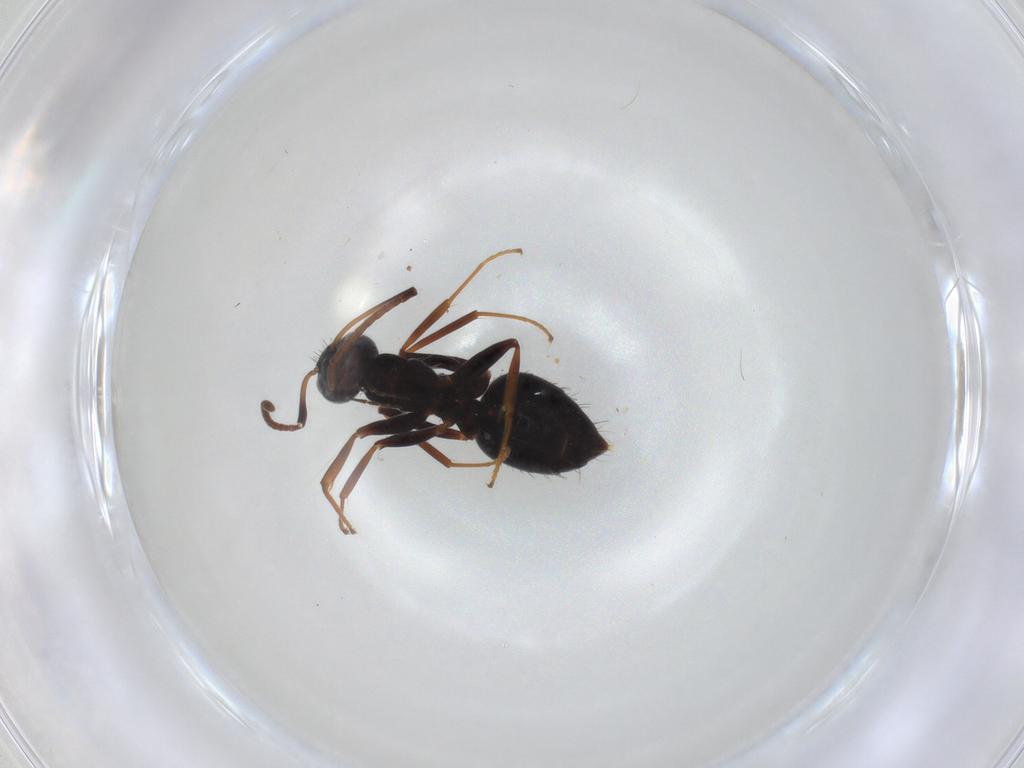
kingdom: Animalia
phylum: Arthropoda
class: Insecta
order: Hymenoptera
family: Formicidae
